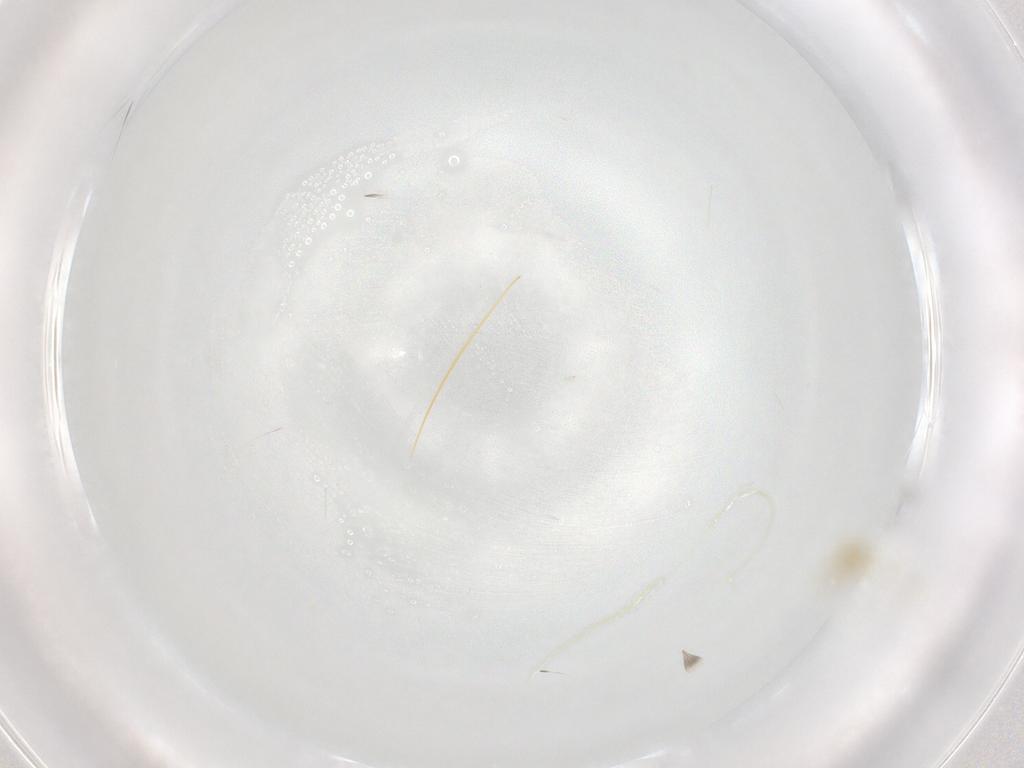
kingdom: Animalia
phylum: Arthropoda
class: Arachnida
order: Trombidiformes
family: Tetranychidae
